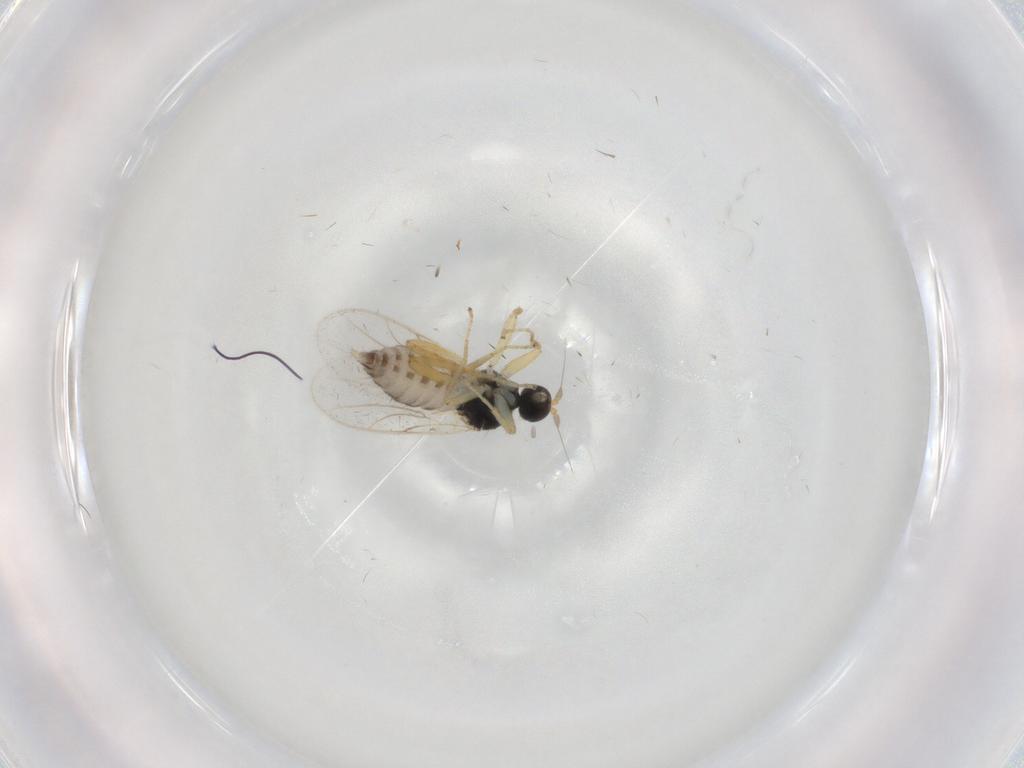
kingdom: Animalia
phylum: Arthropoda
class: Insecta
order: Diptera
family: Hybotidae
